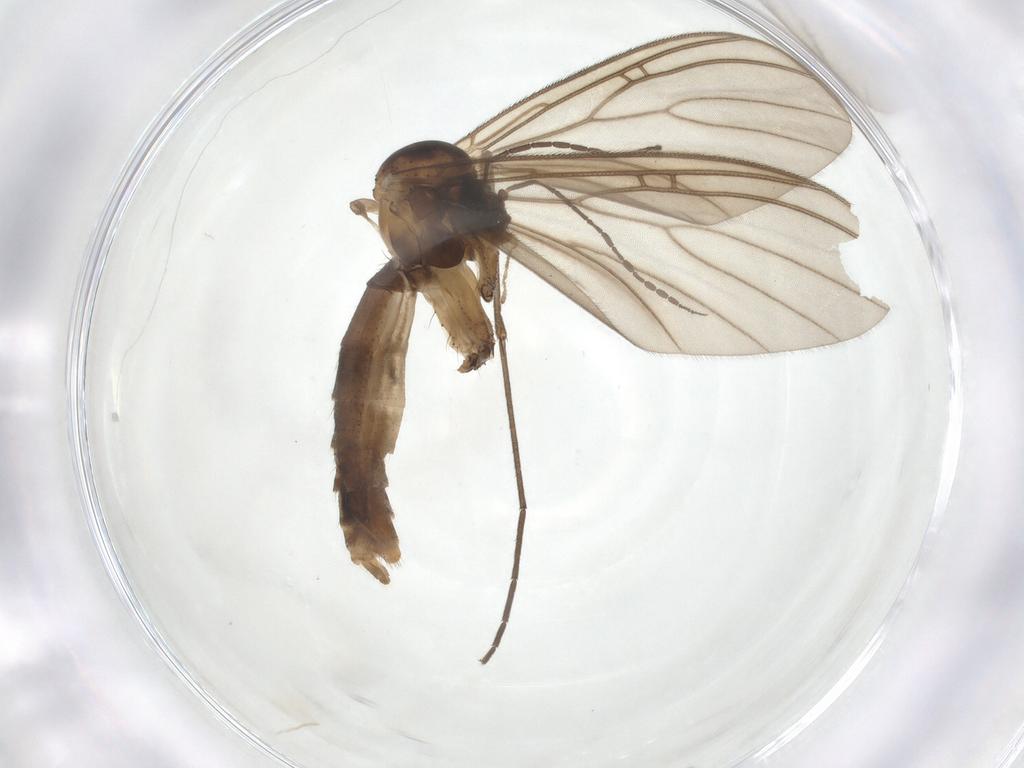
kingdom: Animalia
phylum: Arthropoda
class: Insecta
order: Diptera
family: Mycetophilidae
